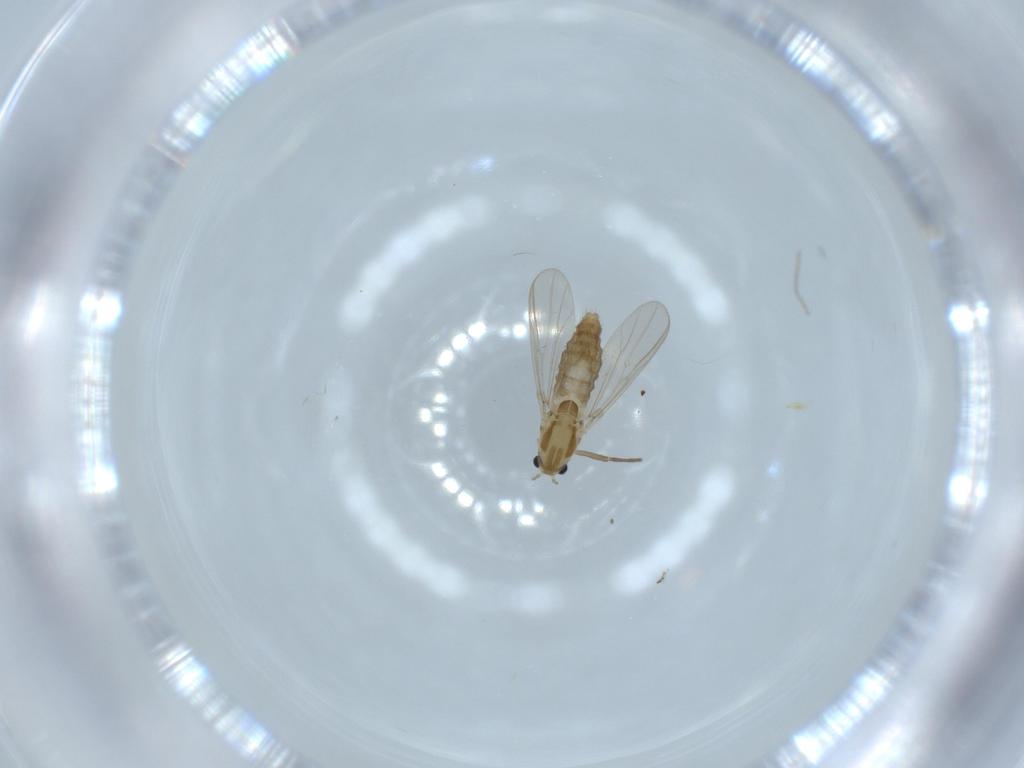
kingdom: Animalia
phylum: Arthropoda
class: Insecta
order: Diptera
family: Chironomidae
